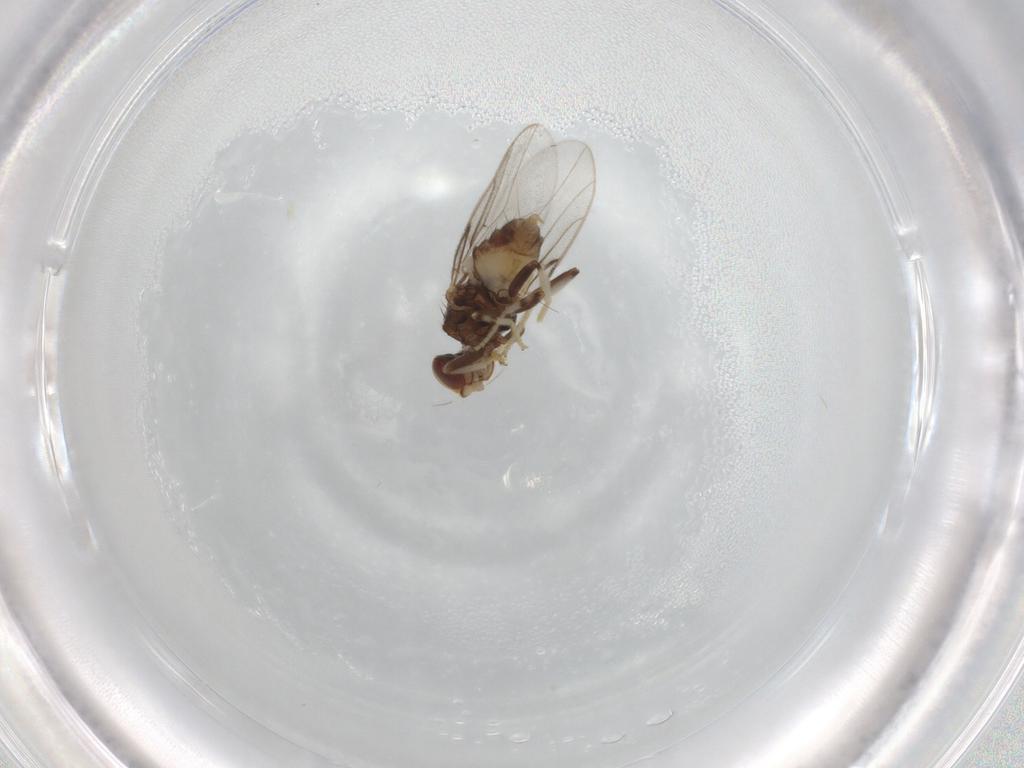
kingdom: Animalia
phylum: Arthropoda
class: Insecta
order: Diptera
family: Chloropidae
